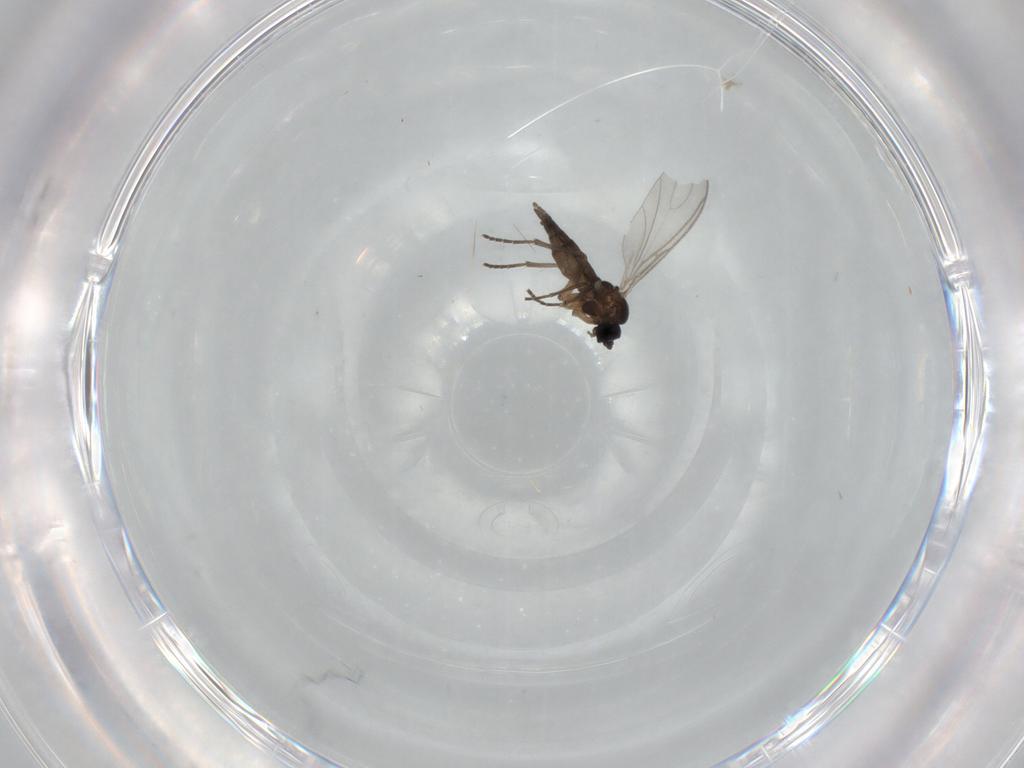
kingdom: Animalia
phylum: Arthropoda
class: Insecta
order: Diptera
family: Sciaridae
